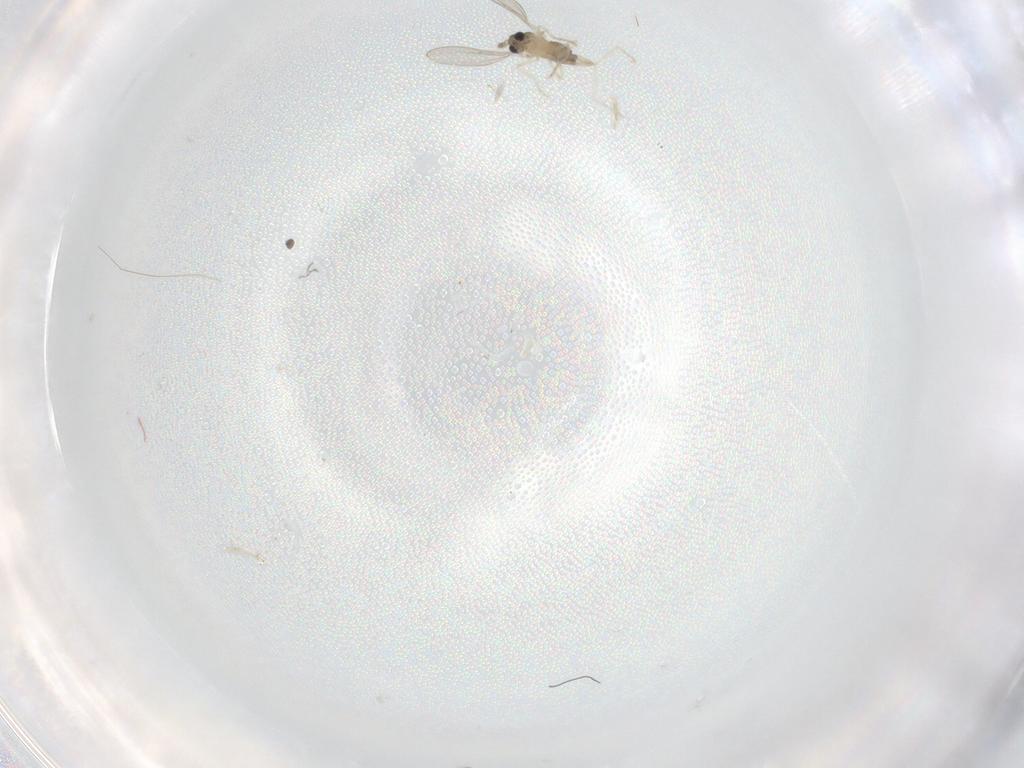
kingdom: Animalia
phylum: Arthropoda
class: Insecta
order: Diptera
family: Cecidomyiidae
